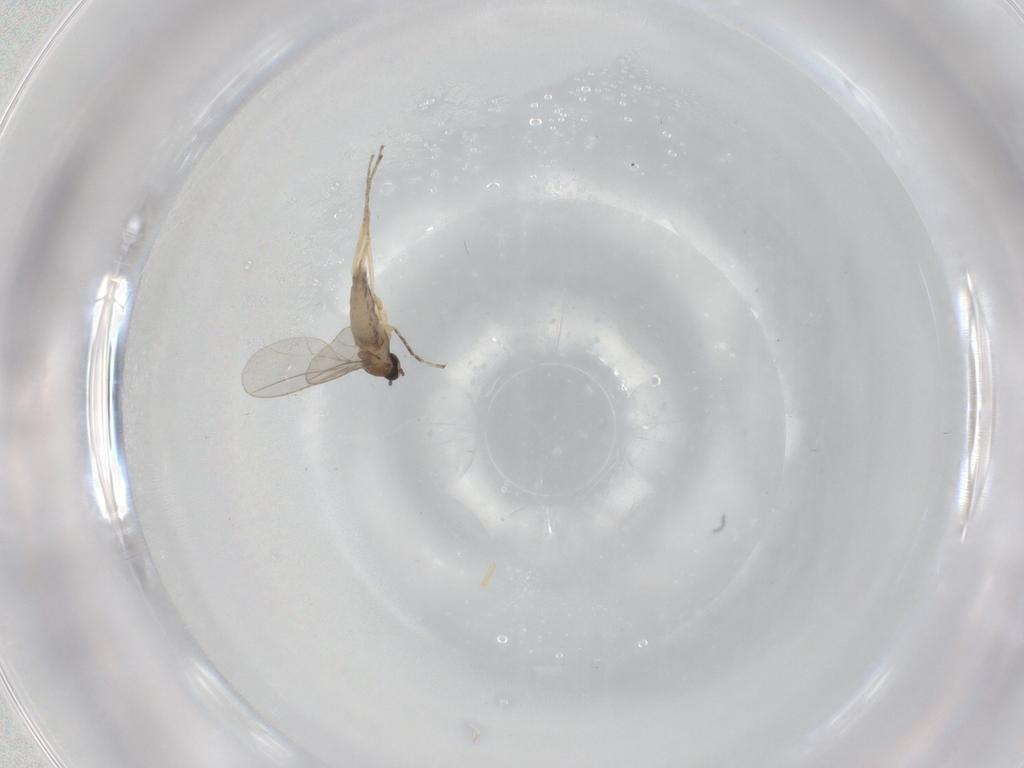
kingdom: Animalia
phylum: Arthropoda
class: Insecta
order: Diptera
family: Cecidomyiidae
